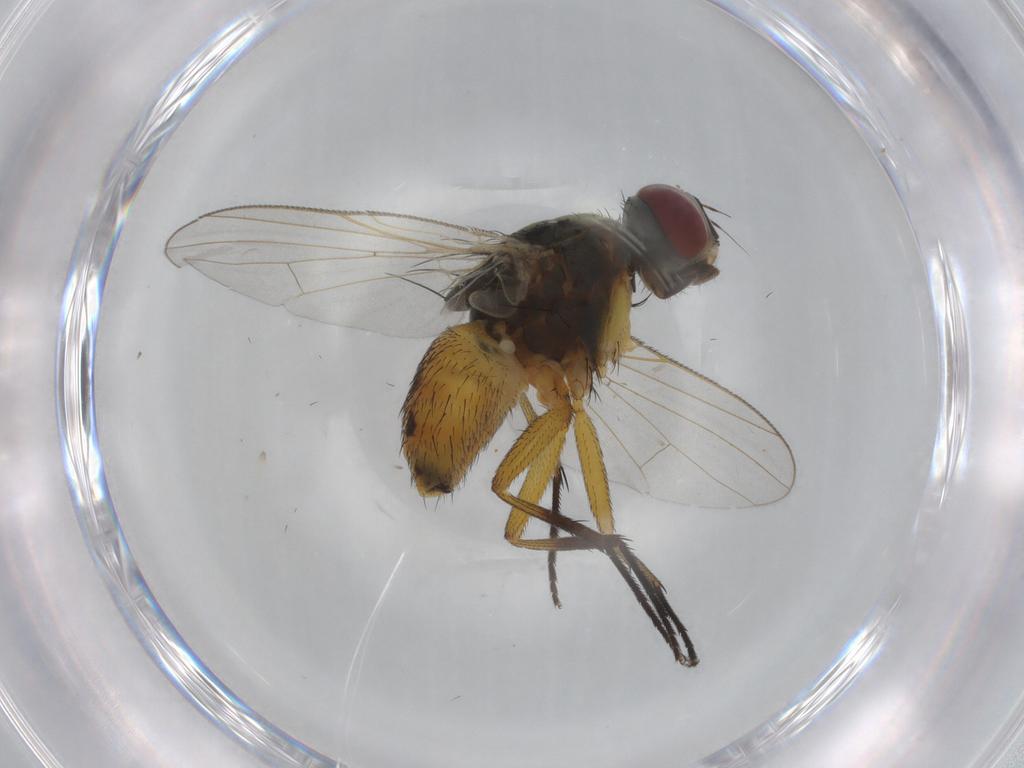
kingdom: Animalia
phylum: Arthropoda
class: Insecta
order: Diptera
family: Muscidae
